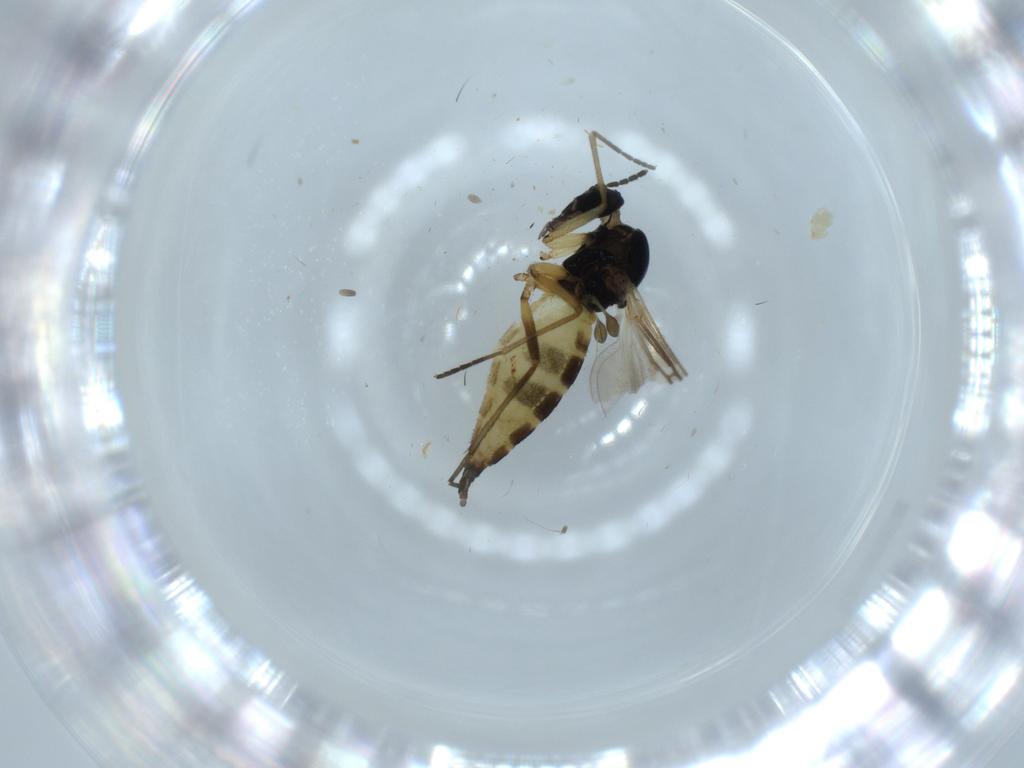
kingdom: Animalia
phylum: Arthropoda
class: Insecta
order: Diptera
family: Sciaridae
